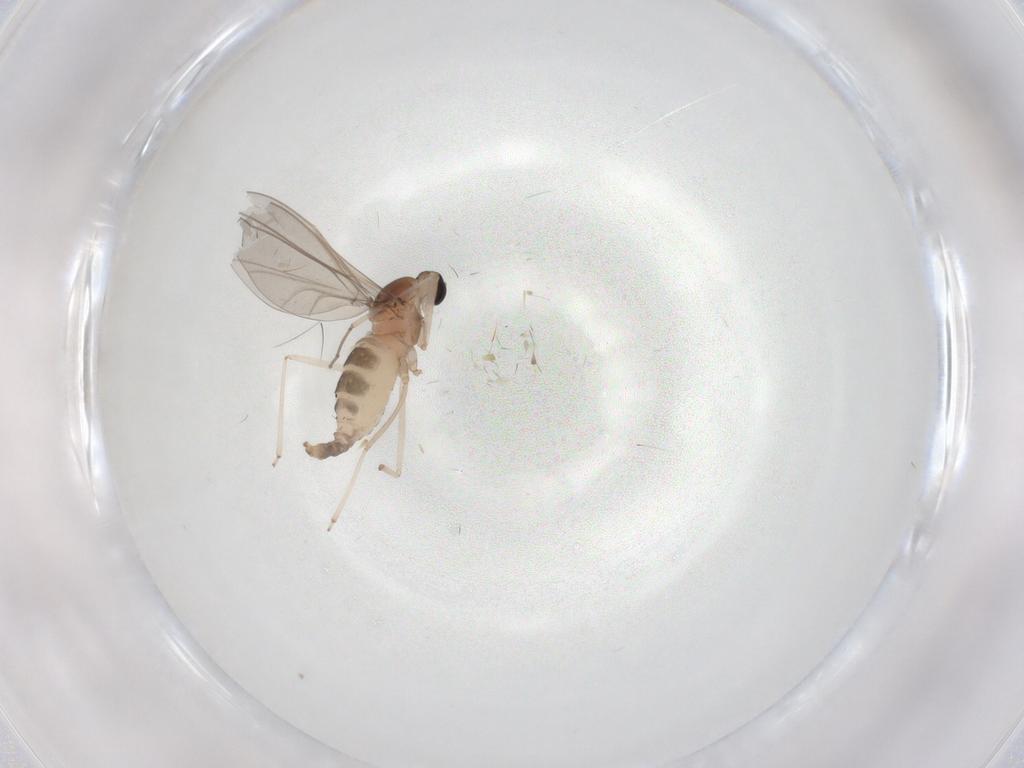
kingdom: Animalia
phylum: Arthropoda
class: Insecta
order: Diptera
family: Cecidomyiidae
